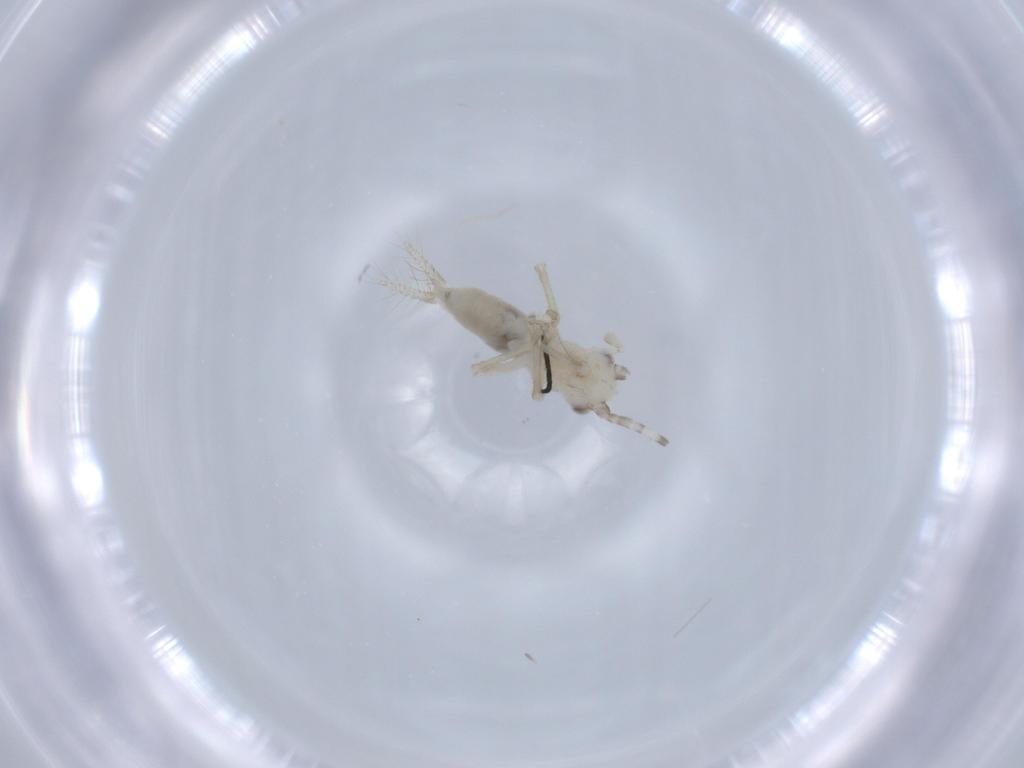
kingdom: Animalia
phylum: Arthropoda
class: Insecta
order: Orthoptera
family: Trigonidiidae
